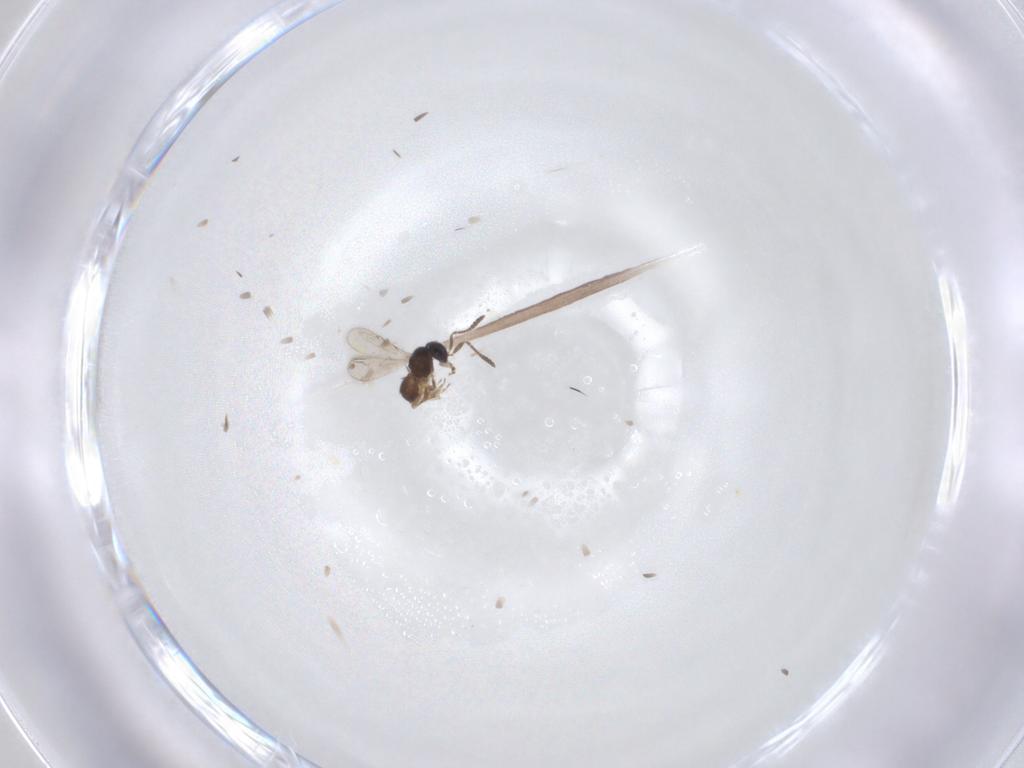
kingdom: Animalia
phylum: Arthropoda
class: Insecta
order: Hymenoptera
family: Scelionidae
